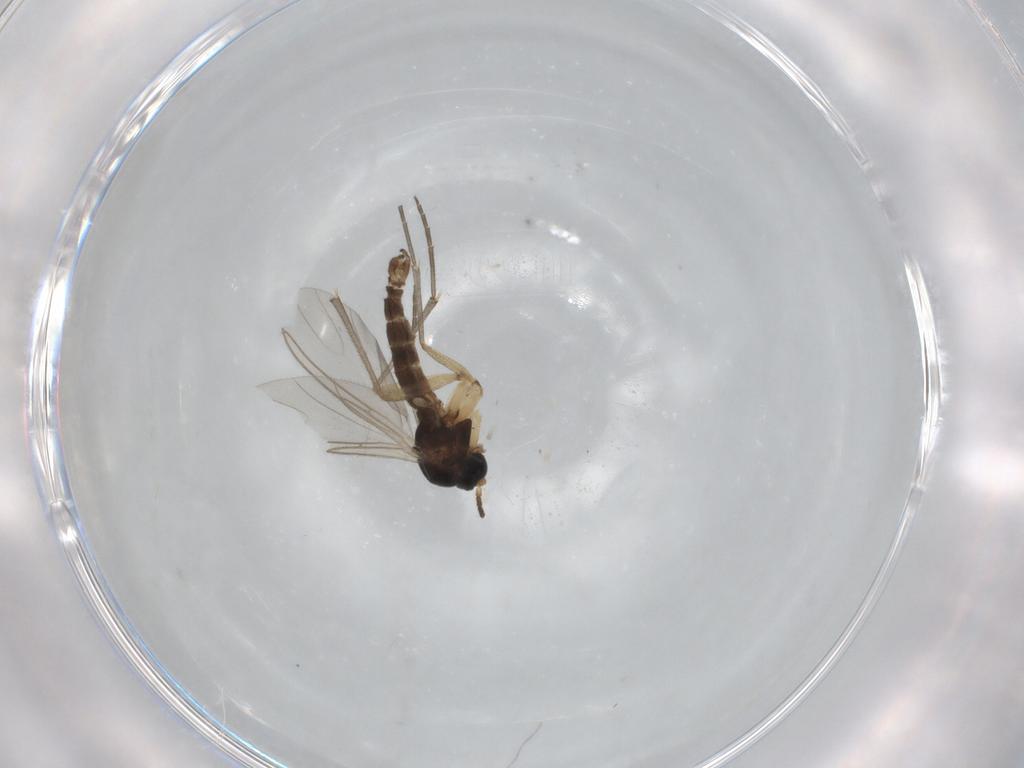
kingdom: Animalia
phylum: Arthropoda
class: Insecta
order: Diptera
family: Sciaridae
